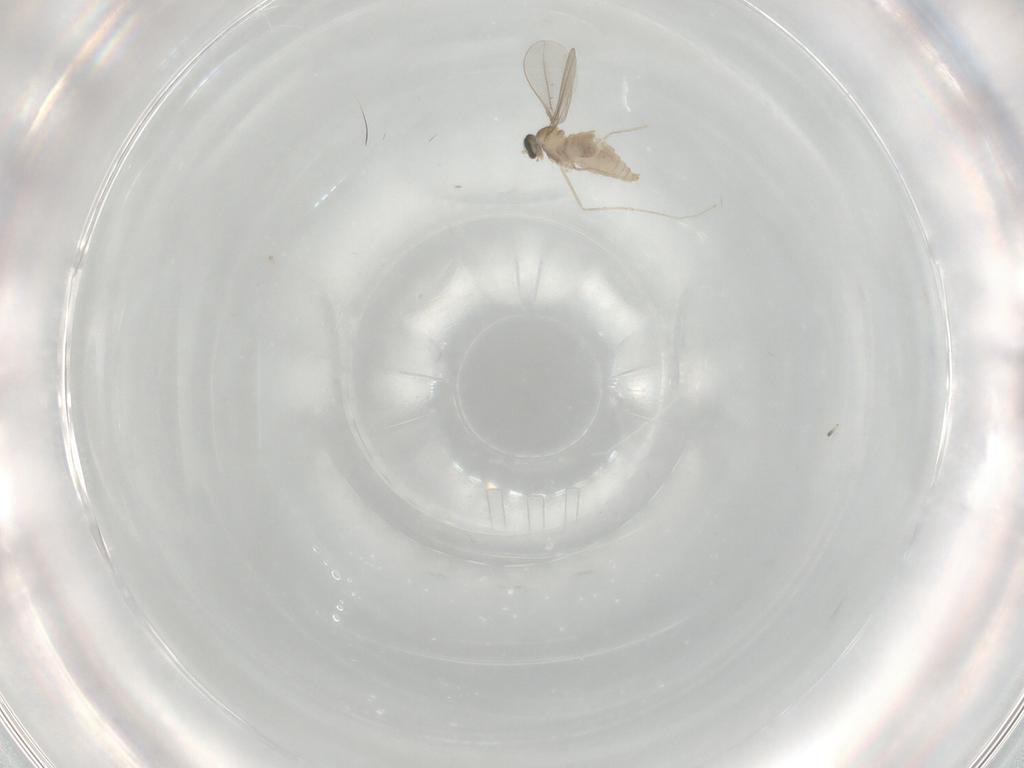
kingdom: Animalia
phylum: Arthropoda
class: Insecta
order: Diptera
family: Cecidomyiidae
